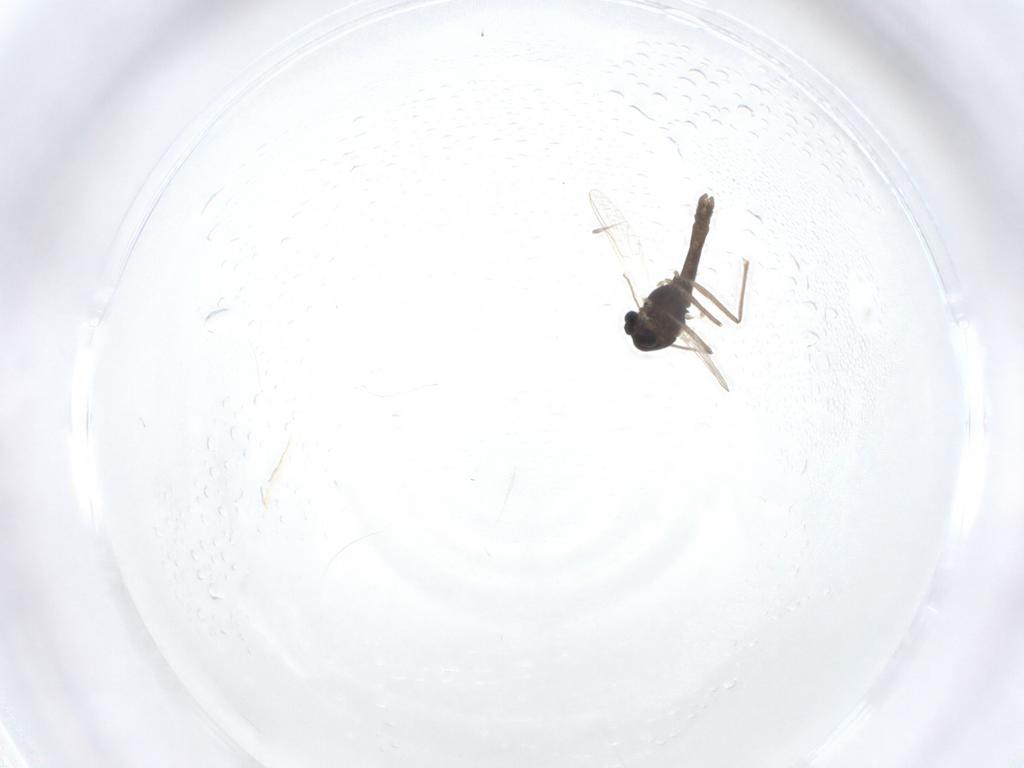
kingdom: Animalia
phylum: Arthropoda
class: Insecta
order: Diptera
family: Chironomidae
